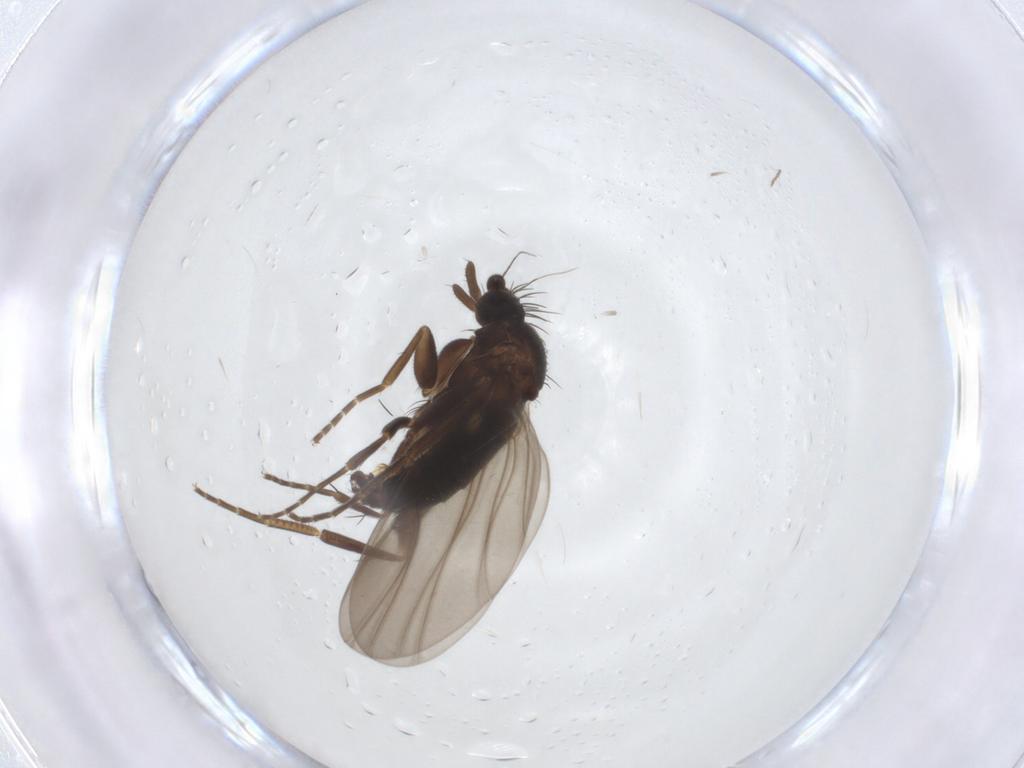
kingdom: Animalia
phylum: Arthropoda
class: Insecta
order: Diptera
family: Phoridae
